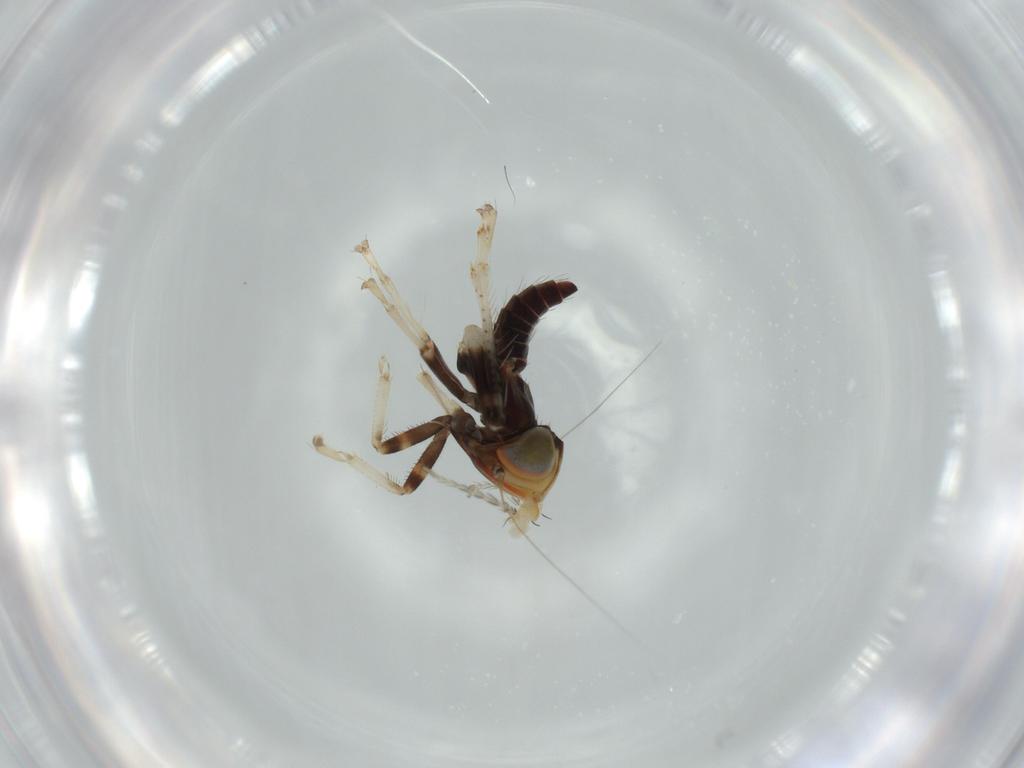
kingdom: Animalia
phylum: Arthropoda
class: Insecta
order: Hemiptera
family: Cicadellidae
